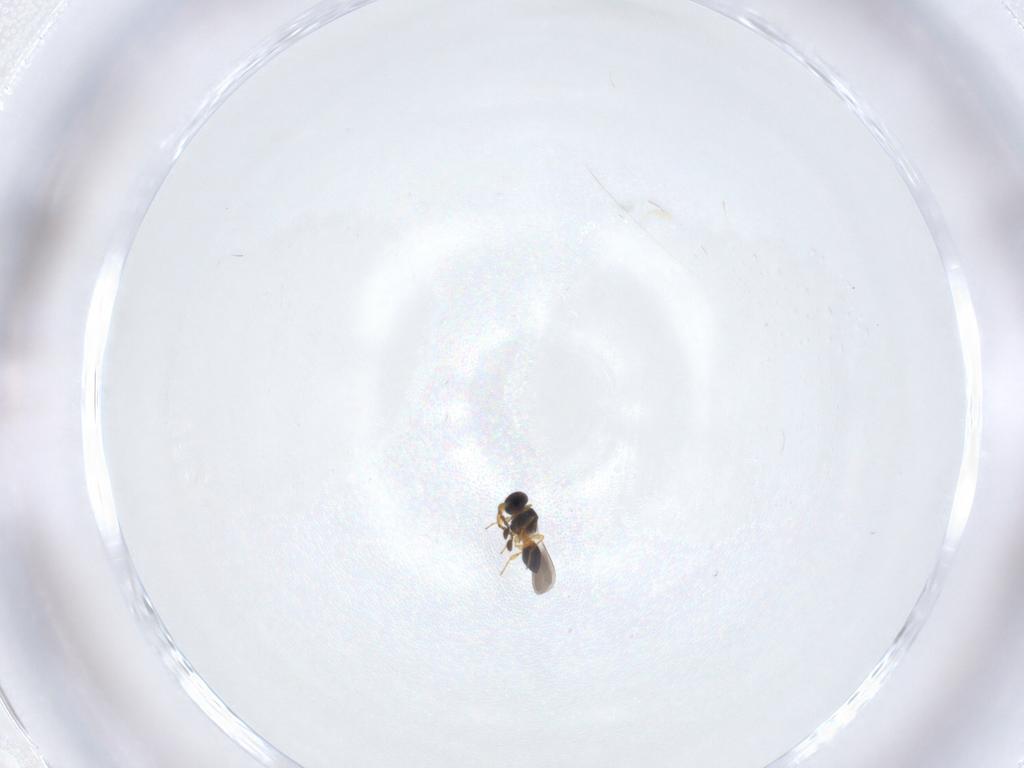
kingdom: Animalia
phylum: Arthropoda
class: Insecta
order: Hymenoptera
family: Platygastridae
